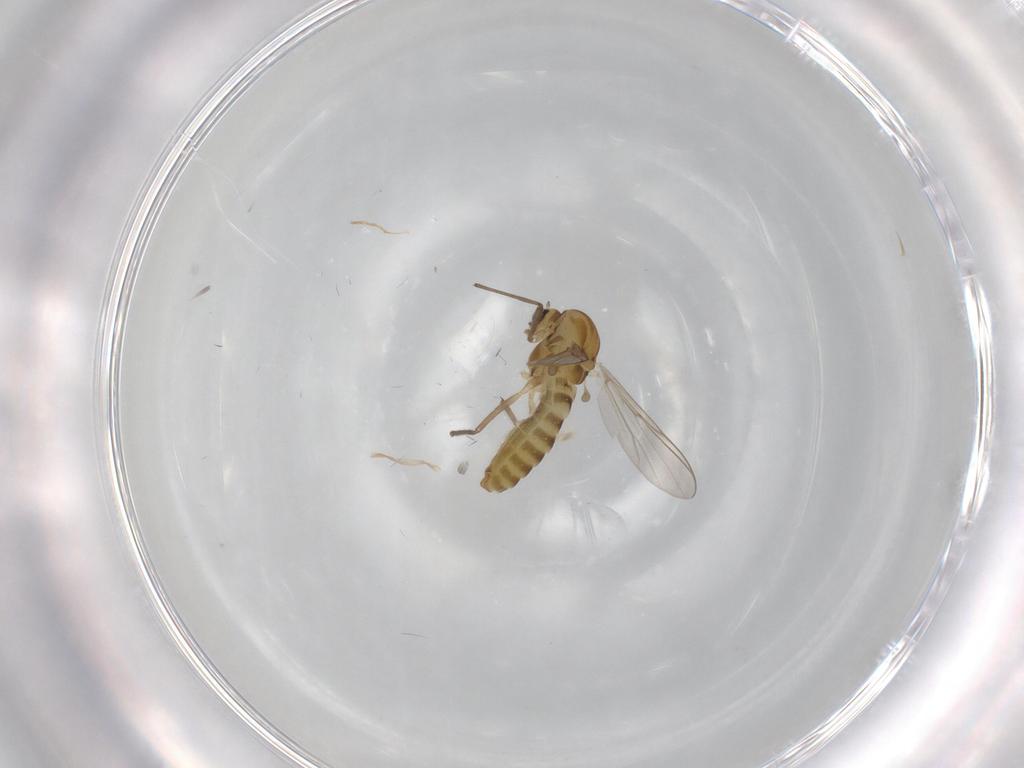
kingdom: Animalia
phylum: Arthropoda
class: Insecta
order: Diptera
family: Chironomidae
